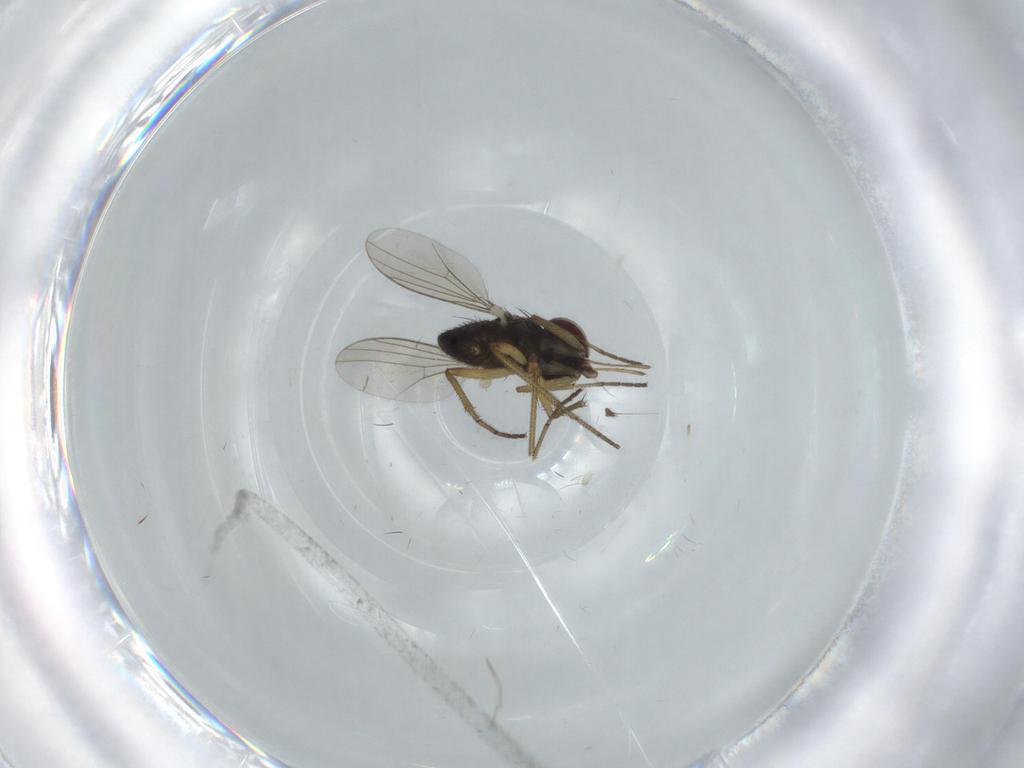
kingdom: Animalia
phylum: Arthropoda
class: Insecta
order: Diptera
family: Dolichopodidae
